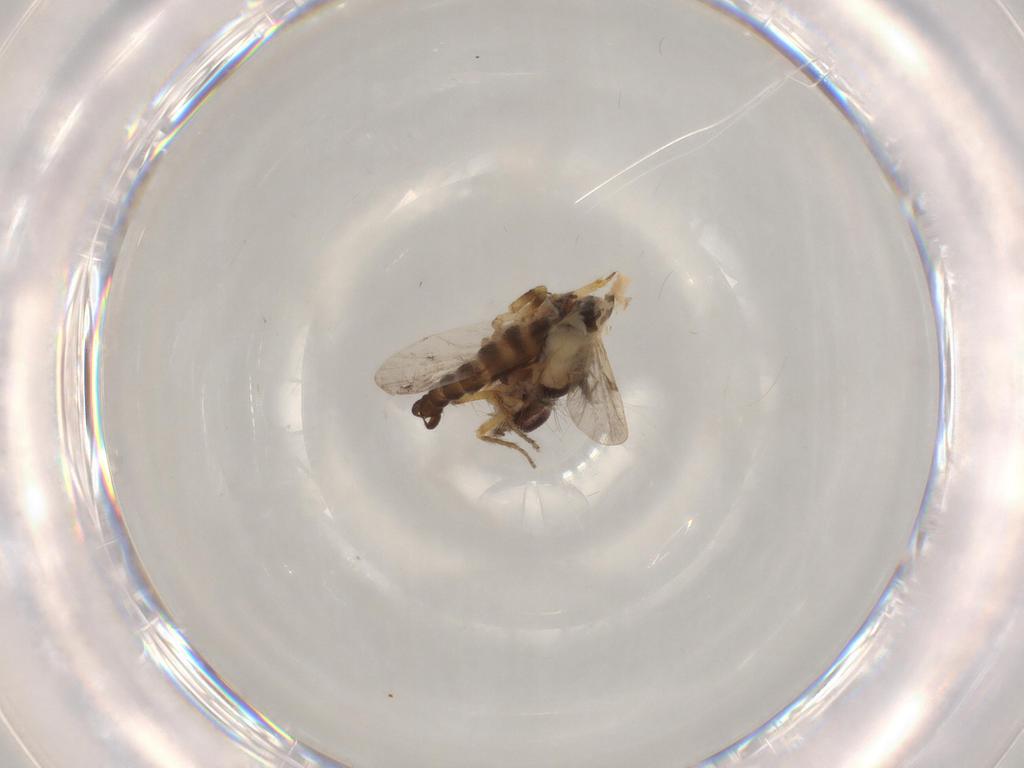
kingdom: Animalia
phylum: Arthropoda
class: Insecta
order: Diptera
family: Ceratopogonidae
